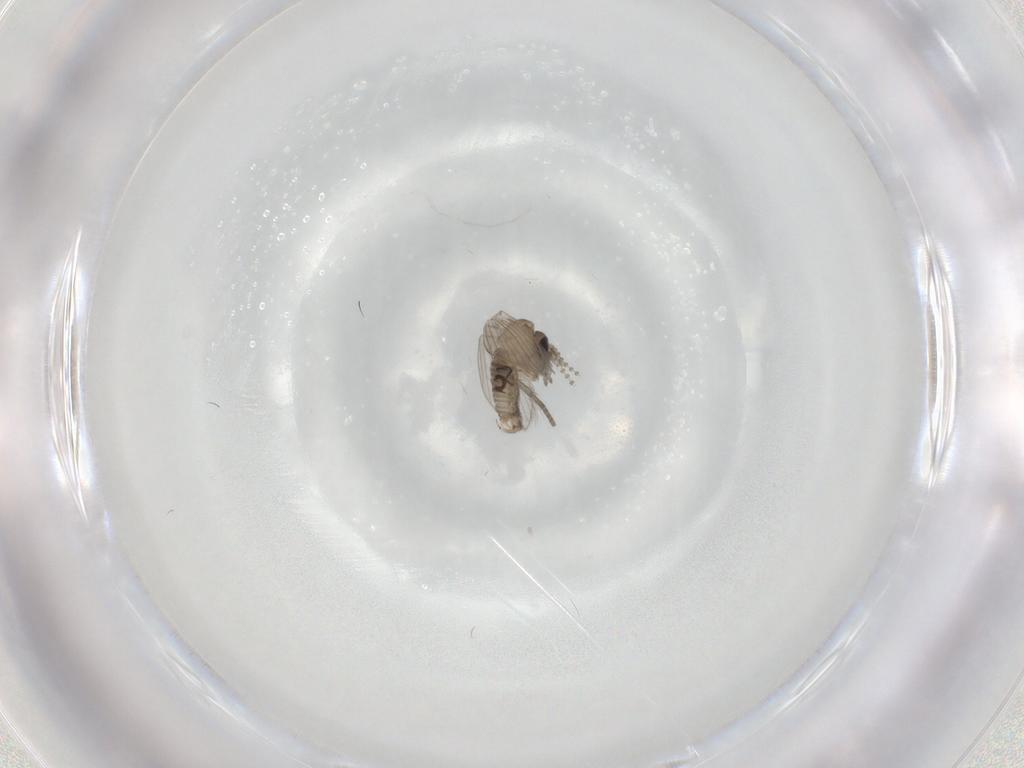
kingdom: Animalia
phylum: Arthropoda
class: Insecta
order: Diptera
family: Psychodidae
